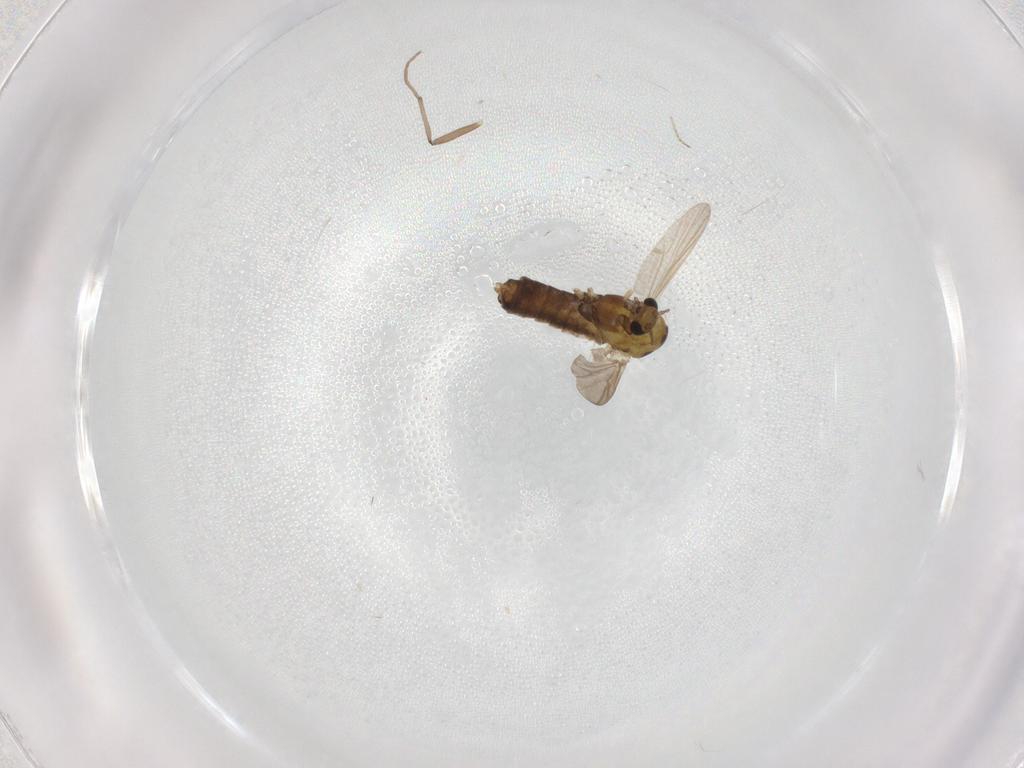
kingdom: Animalia
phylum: Arthropoda
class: Insecta
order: Diptera
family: Chironomidae
